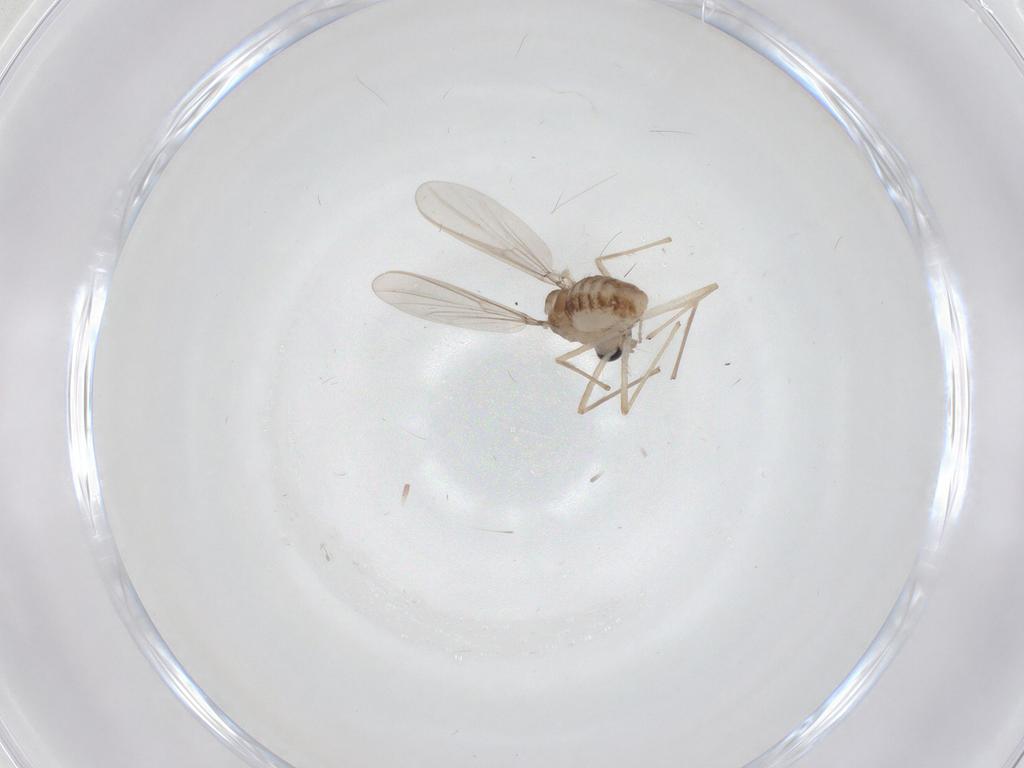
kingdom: Animalia
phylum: Arthropoda
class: Insecta
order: Diptera
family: Chironomidae
